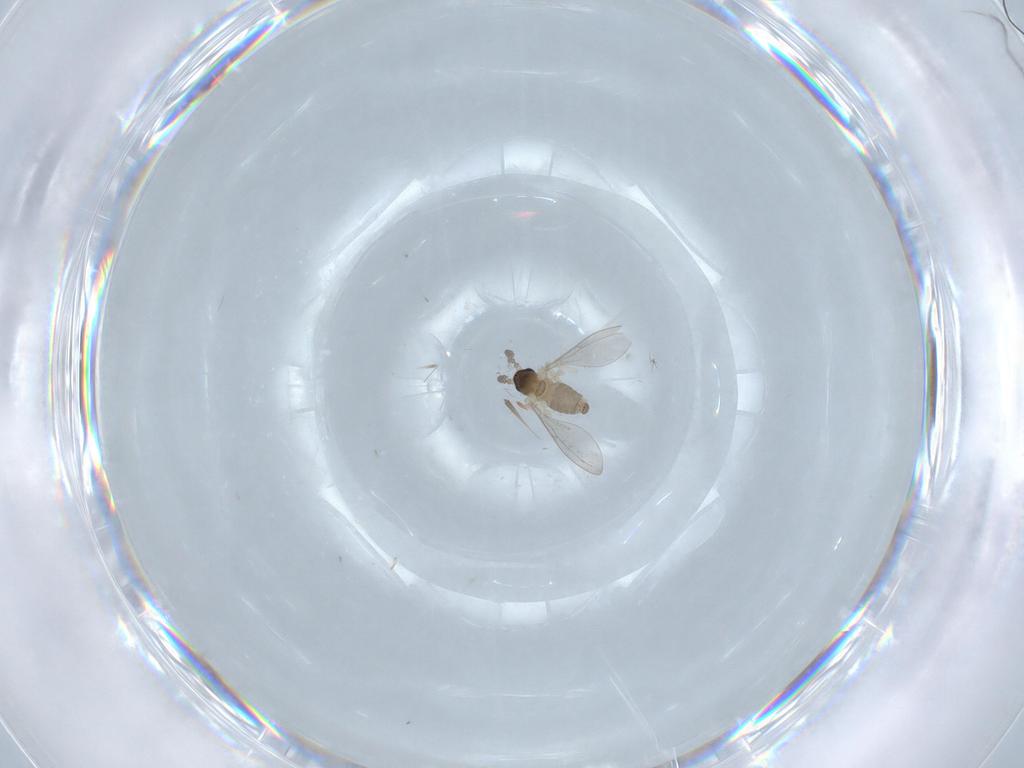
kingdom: Animalia
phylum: Arthropoda
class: Insecta
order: Diptera
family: Cecidomyiidae
